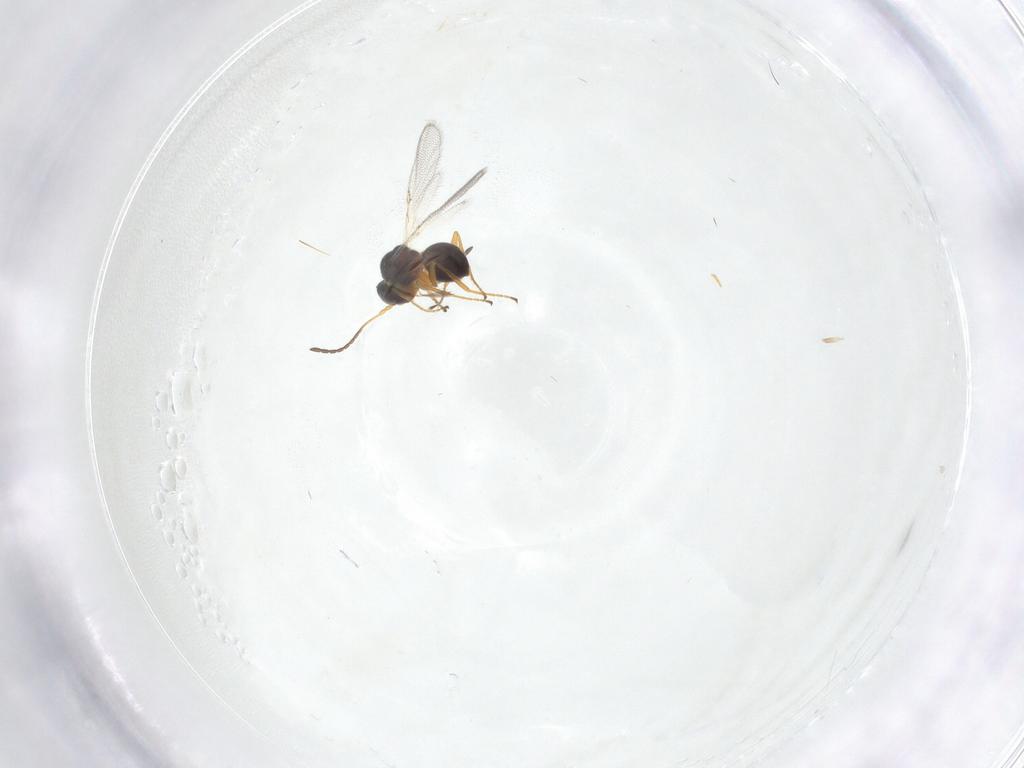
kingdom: Animalia
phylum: Arthropoda
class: Insecta
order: Hymenoptera
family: Figitidae
